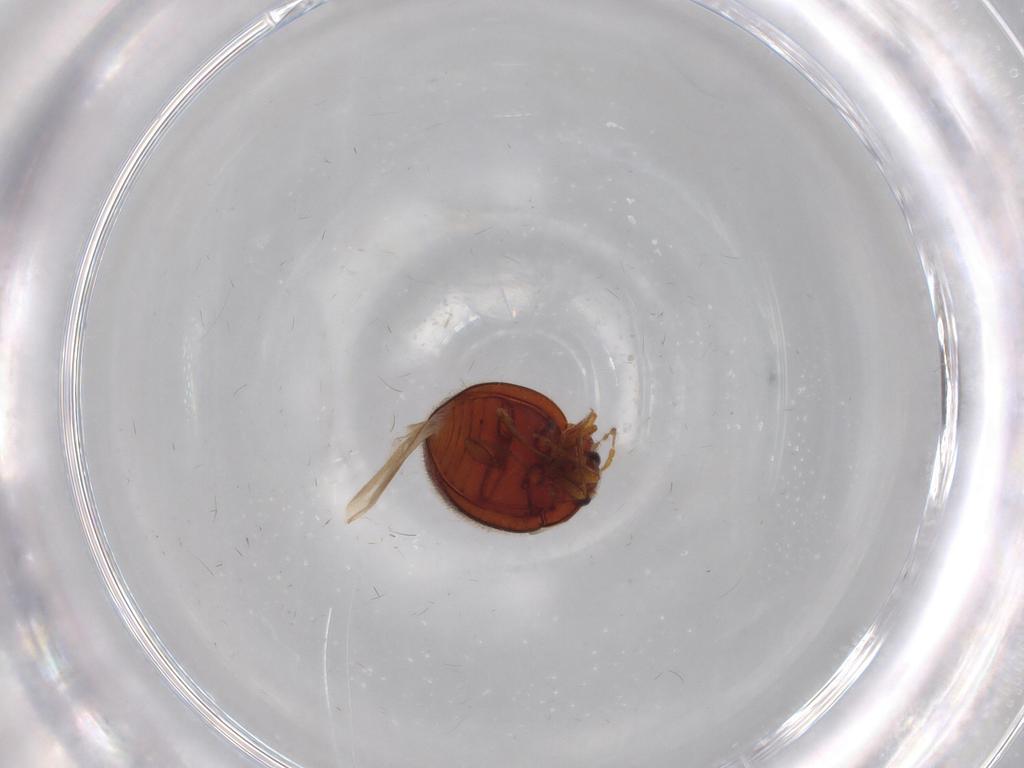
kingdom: Animalia
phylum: Arthropoda
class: Insecta
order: Coleoptera
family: Anamorphidae
